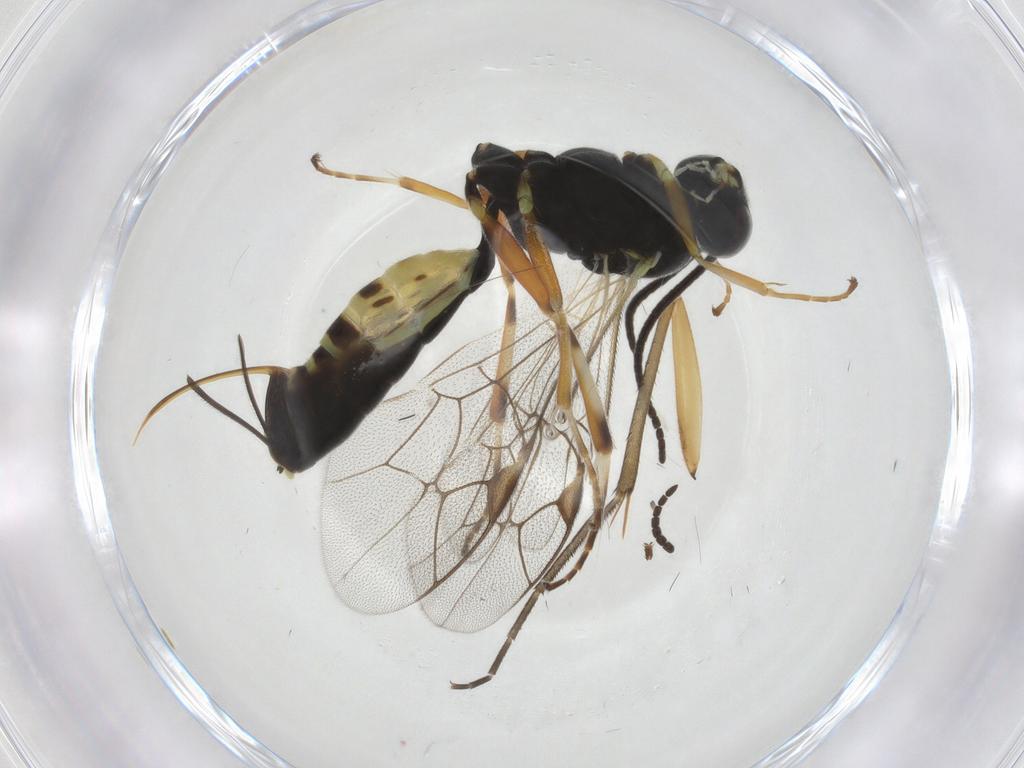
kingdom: Animalia
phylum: Arthropoda
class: Insecta
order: Hymenoptera
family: Ichneumonidae
